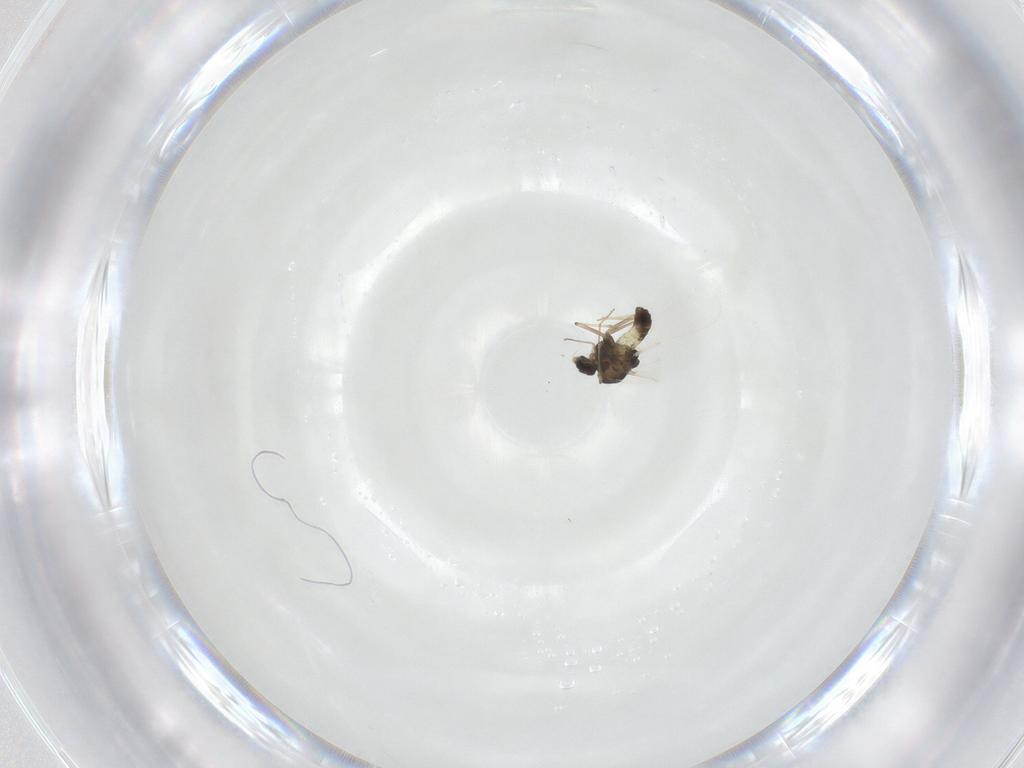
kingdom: Animalia
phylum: Arthropoda
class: Insecta
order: Diptera
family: Chironomidae
